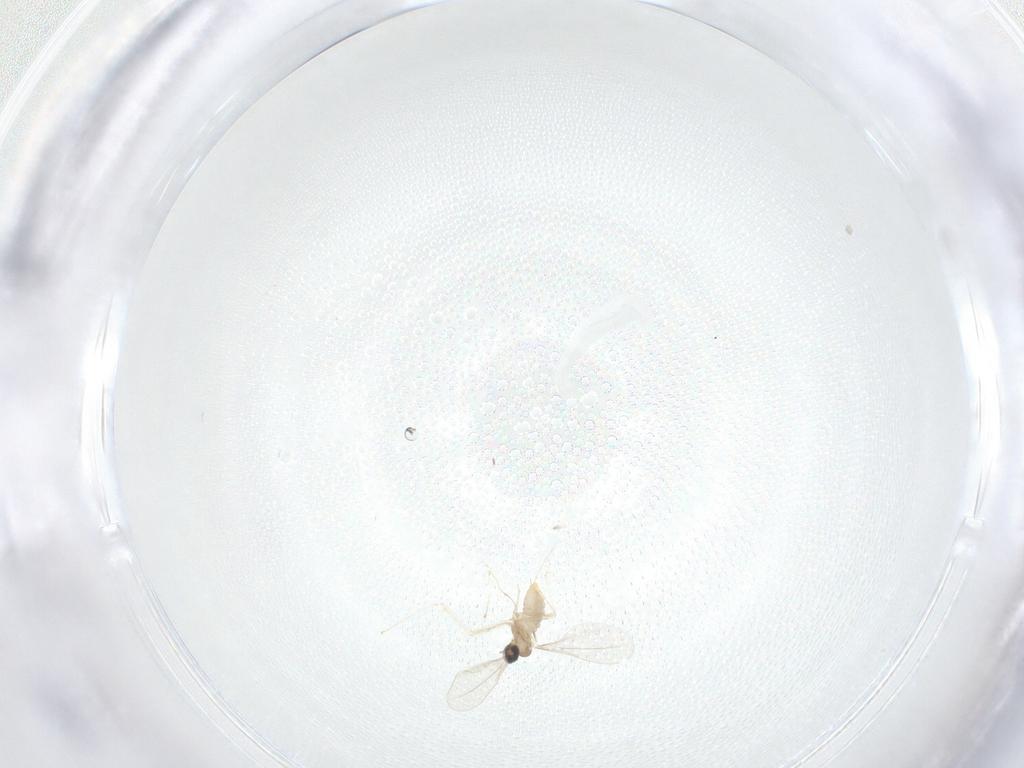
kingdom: Animalia
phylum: Arthropoda
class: Insecta
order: Diptera
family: Cecidomyiidae
